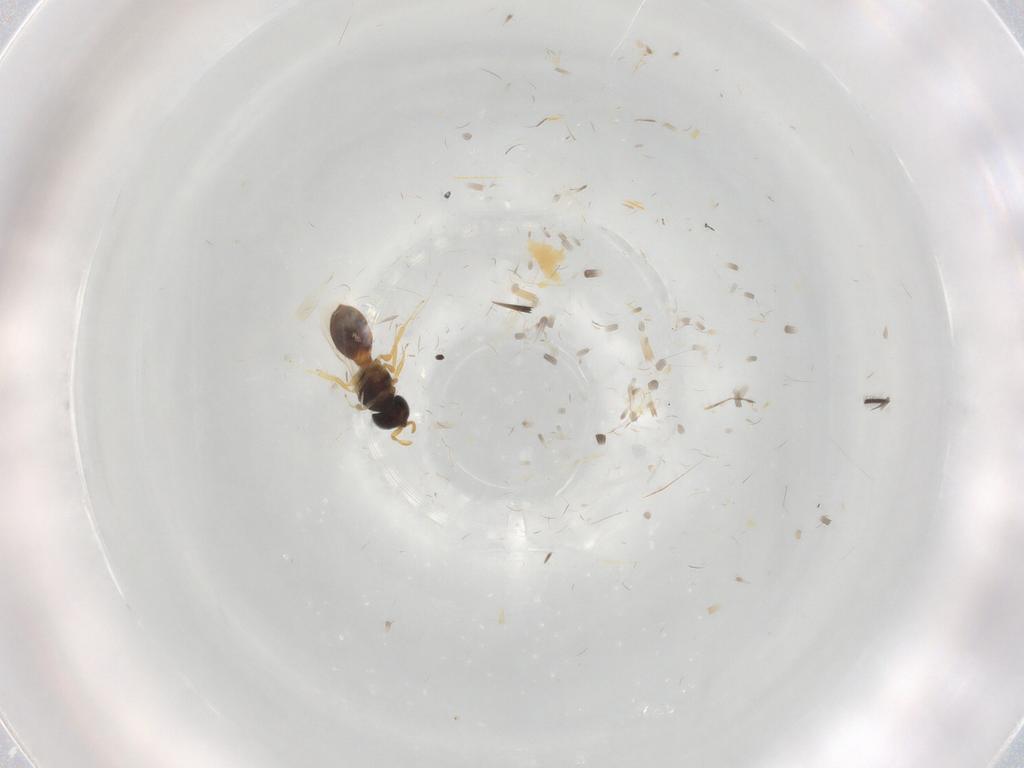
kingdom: Animalia
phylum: Arthropoda
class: Insecta
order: Hymenoptera
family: Scelionidae
